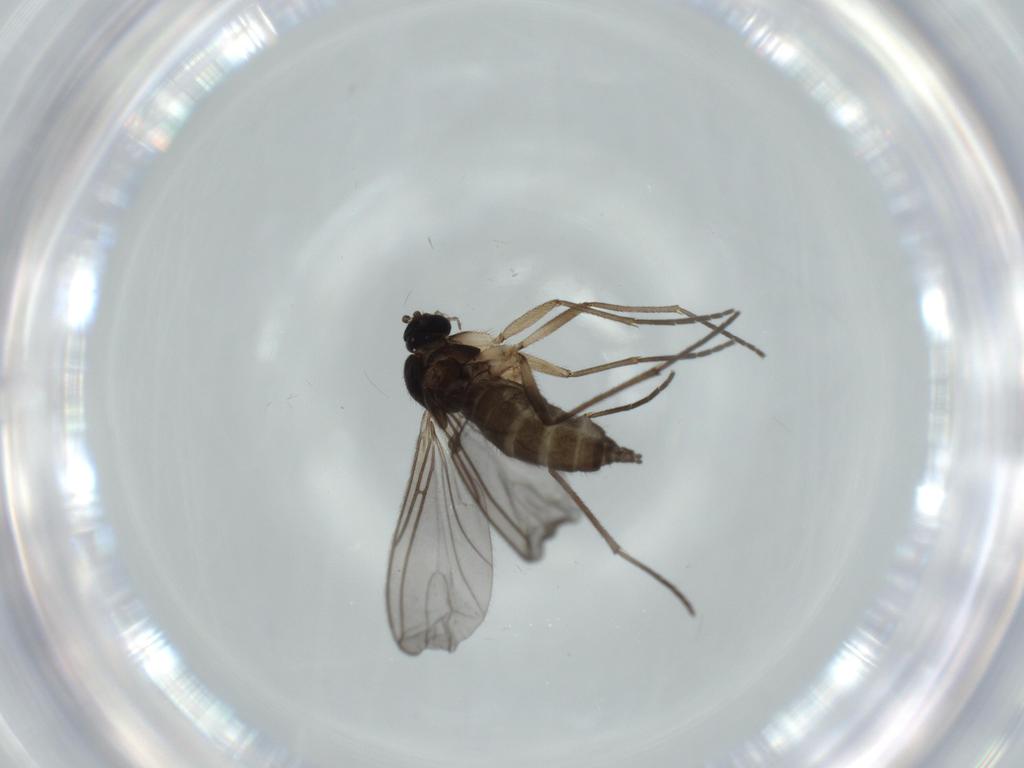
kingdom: Animalia
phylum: Arthropoda
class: Insecta
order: Diptera
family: Sciaridae
